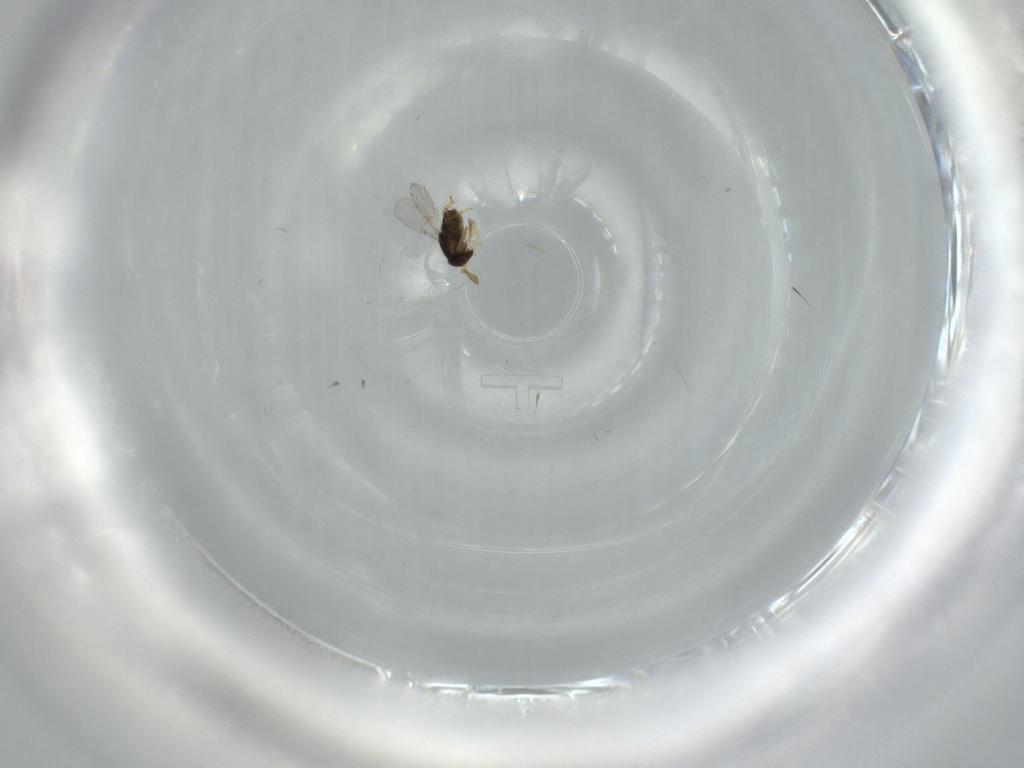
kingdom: Animalia
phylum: Arthropoda
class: Insecta
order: Hymenoptera
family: Encyrtidae
